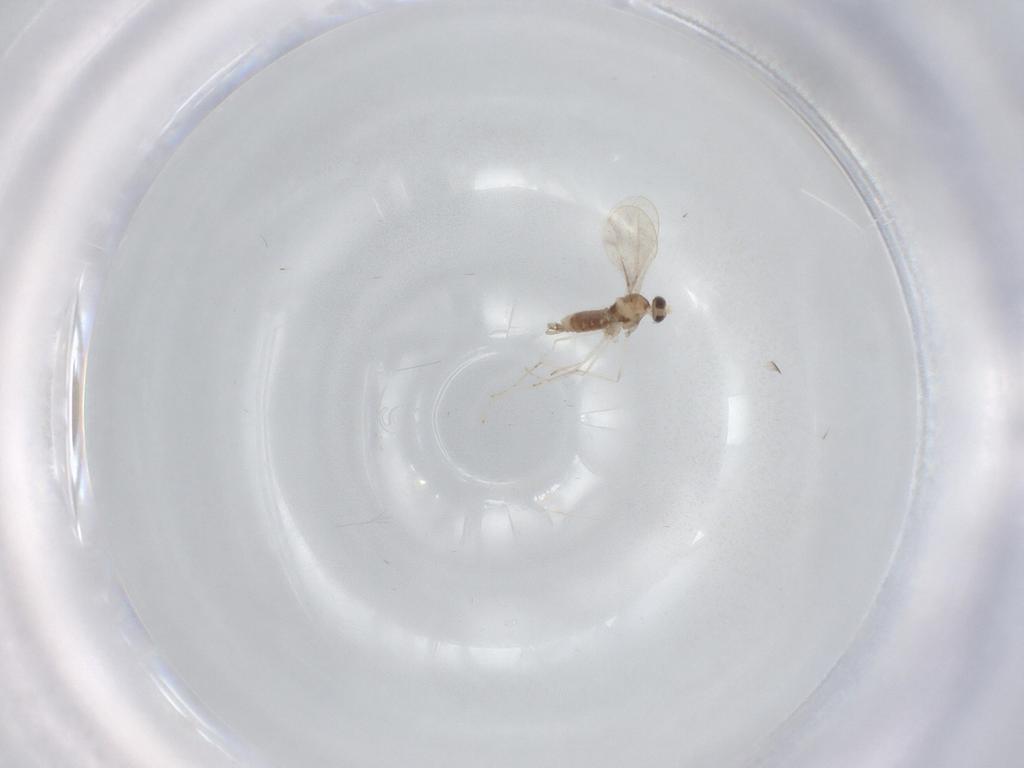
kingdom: Animalia
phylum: Arthropoda
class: Insecta
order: Diptera
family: Cecidomyiidae
